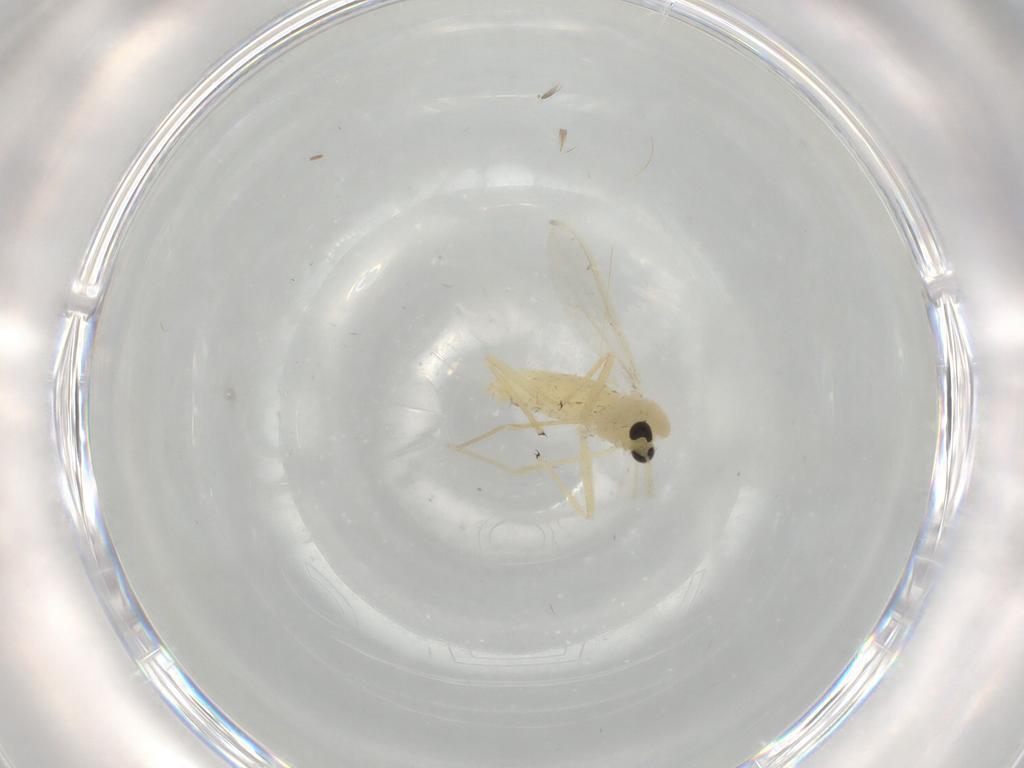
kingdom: Animalia
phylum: Arthropoda
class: Insecta
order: Diptera
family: Chironomidae
